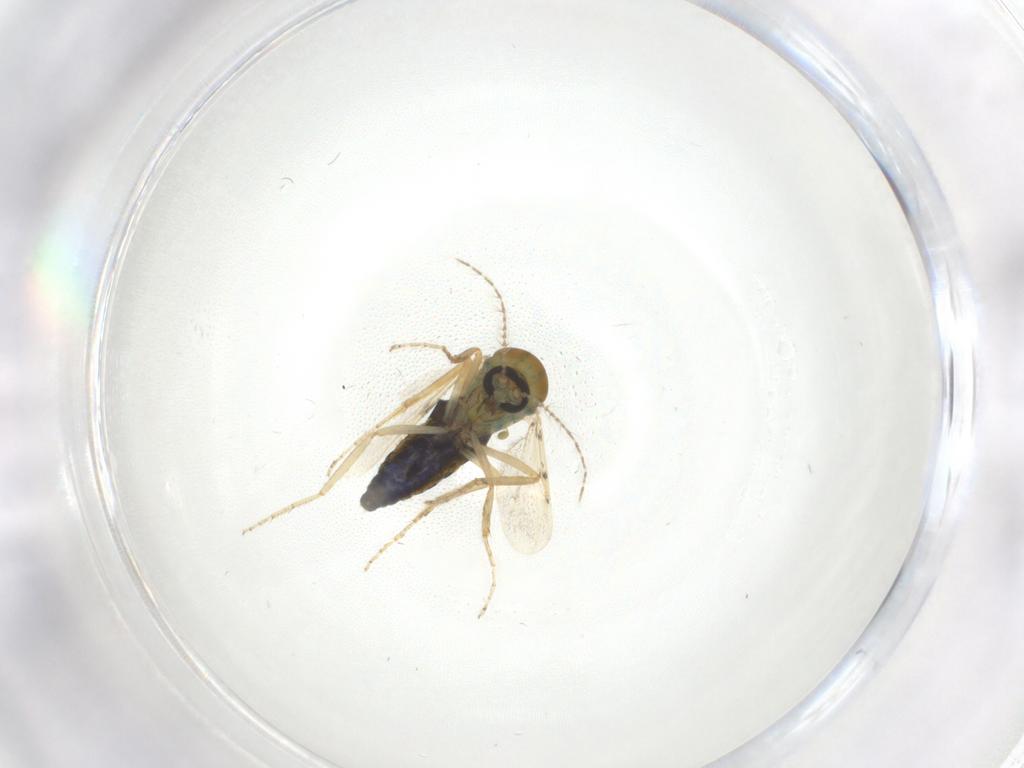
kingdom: Animalia
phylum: Arthropoda
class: Insecta
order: Diptera
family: Ceratopogonidae
